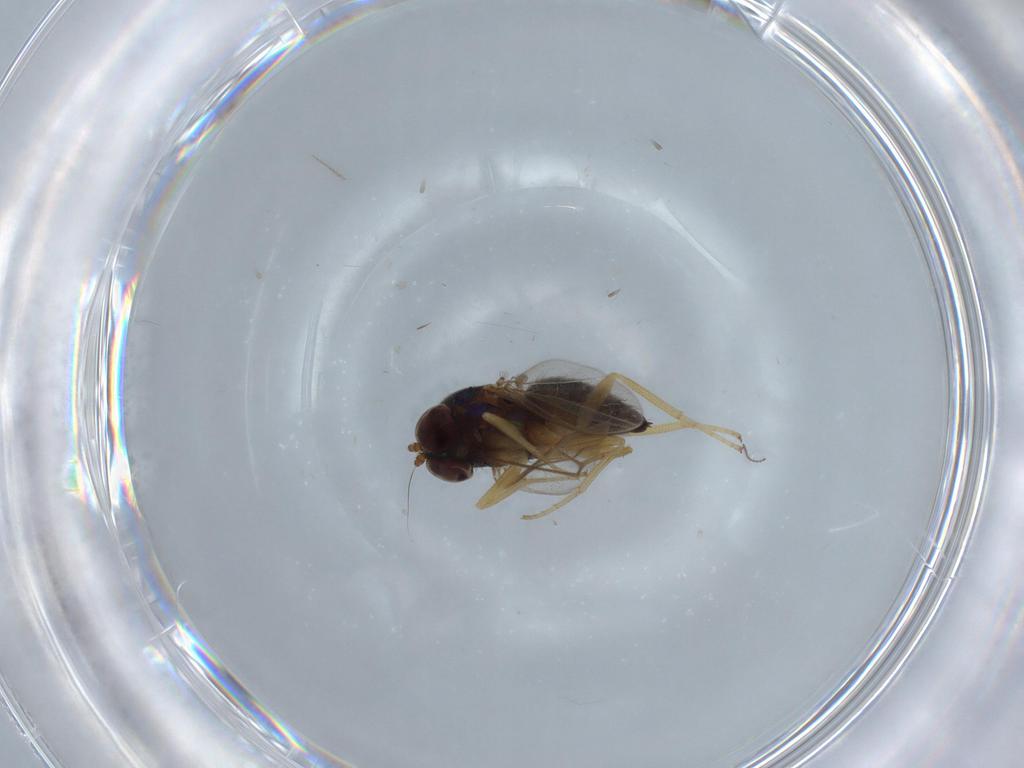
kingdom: Animalia
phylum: Arthropoda
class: Insecta
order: Diptera
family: Dolichopodidae
